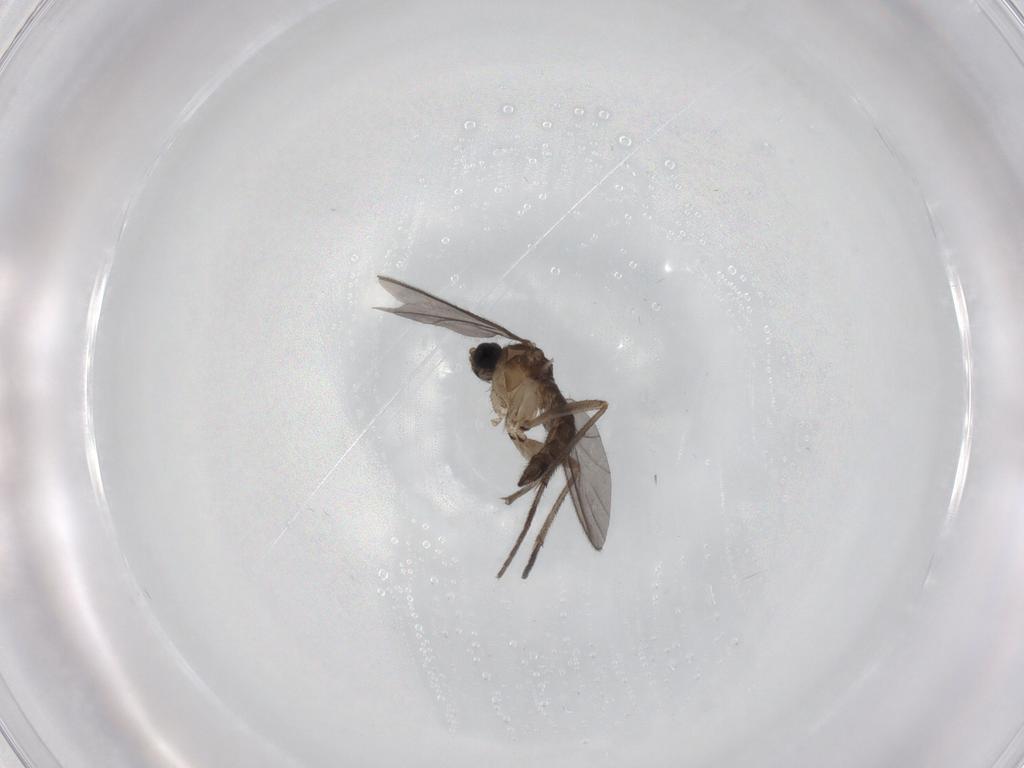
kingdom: Animalia
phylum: Arthropoda
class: Insecta
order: Diptera
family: Sciaridae
